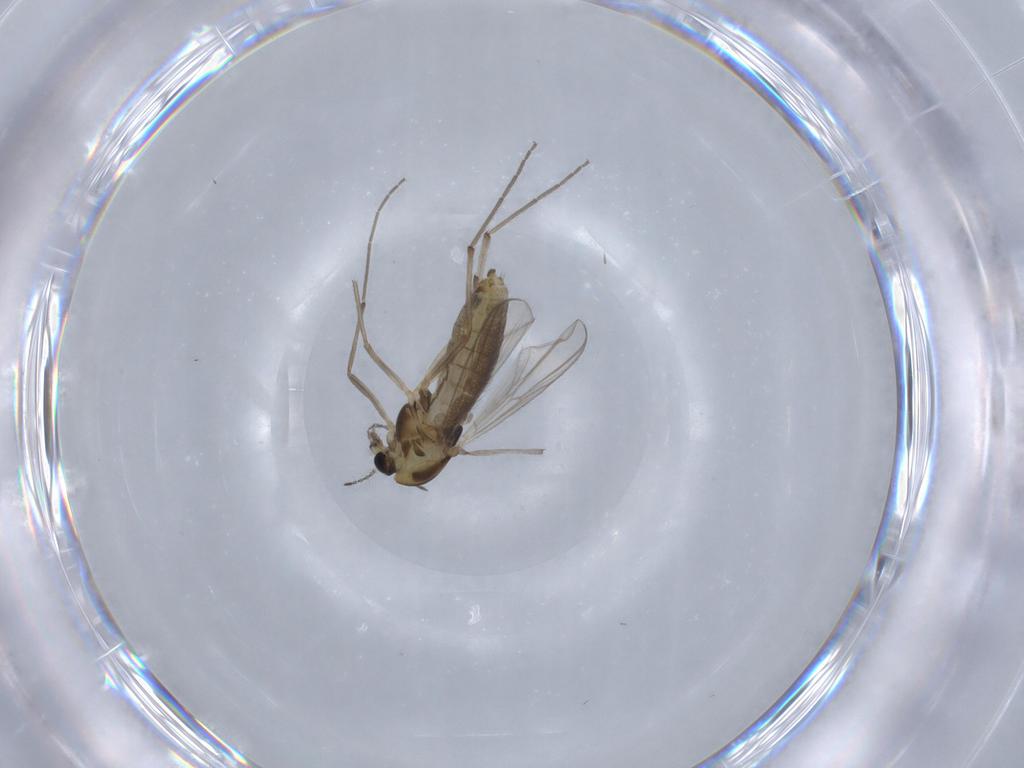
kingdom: Animalia
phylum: Arthropoda
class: Insecta
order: Diptera
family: Chironomidae
